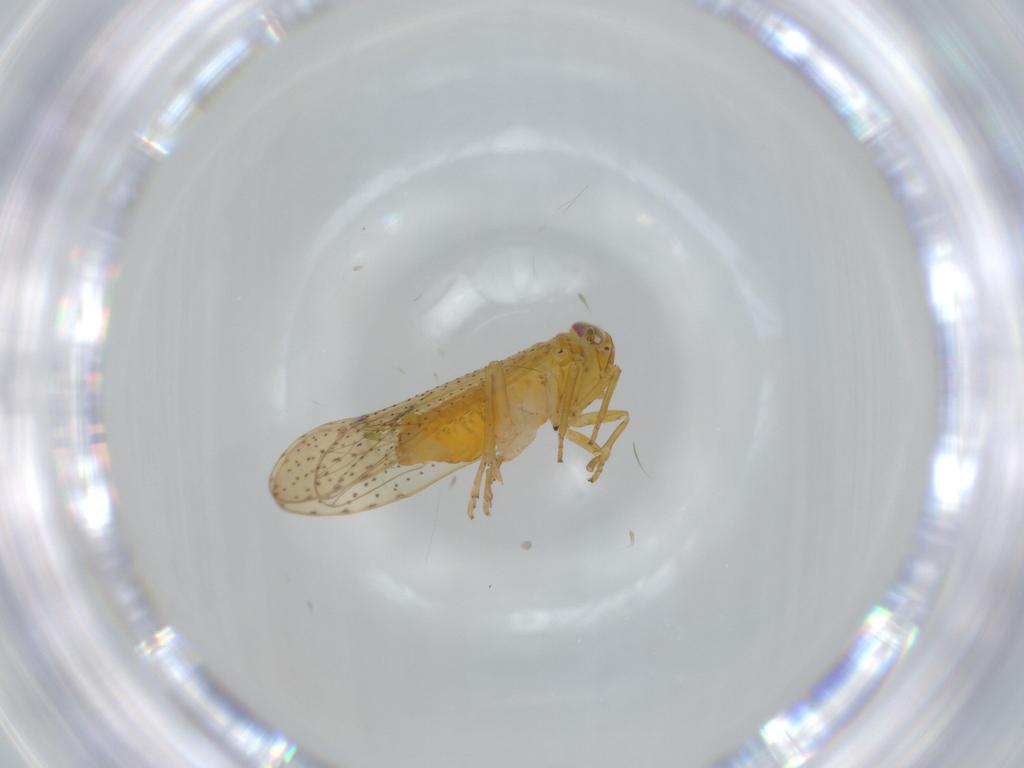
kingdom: Animalia
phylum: Arthropoda
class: Insecta
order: Hemiptera
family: Delphacidae
